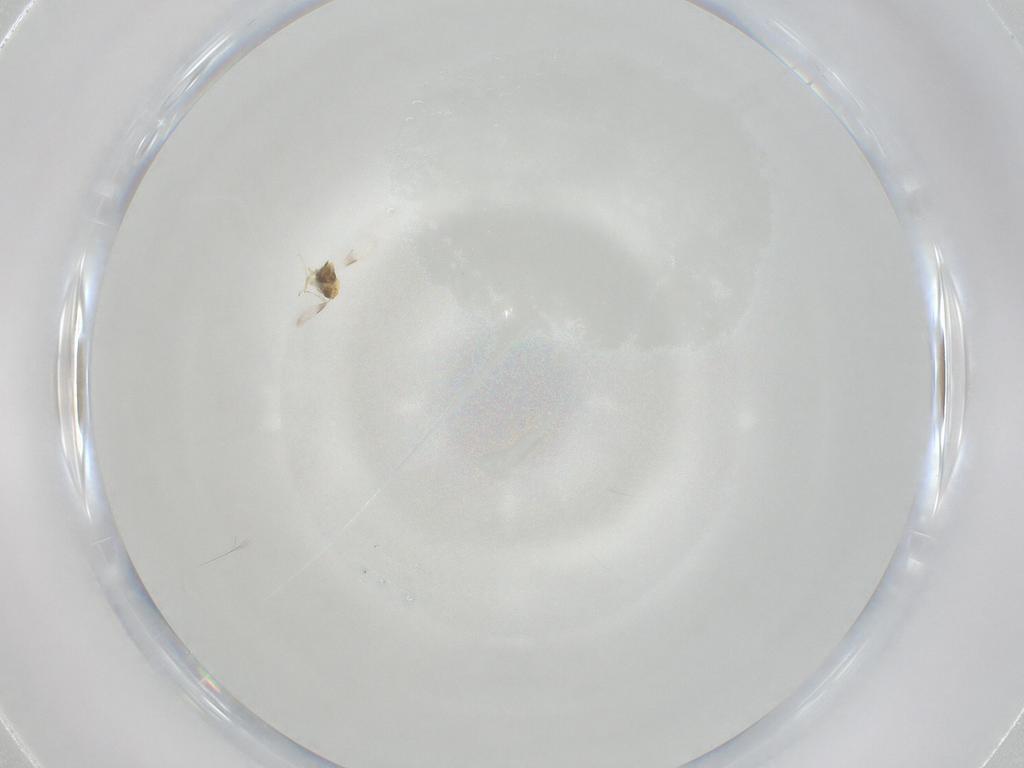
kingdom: Animalia
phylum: Arthropoda
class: Insecta
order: Hymenoptera
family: Aphelinidae
